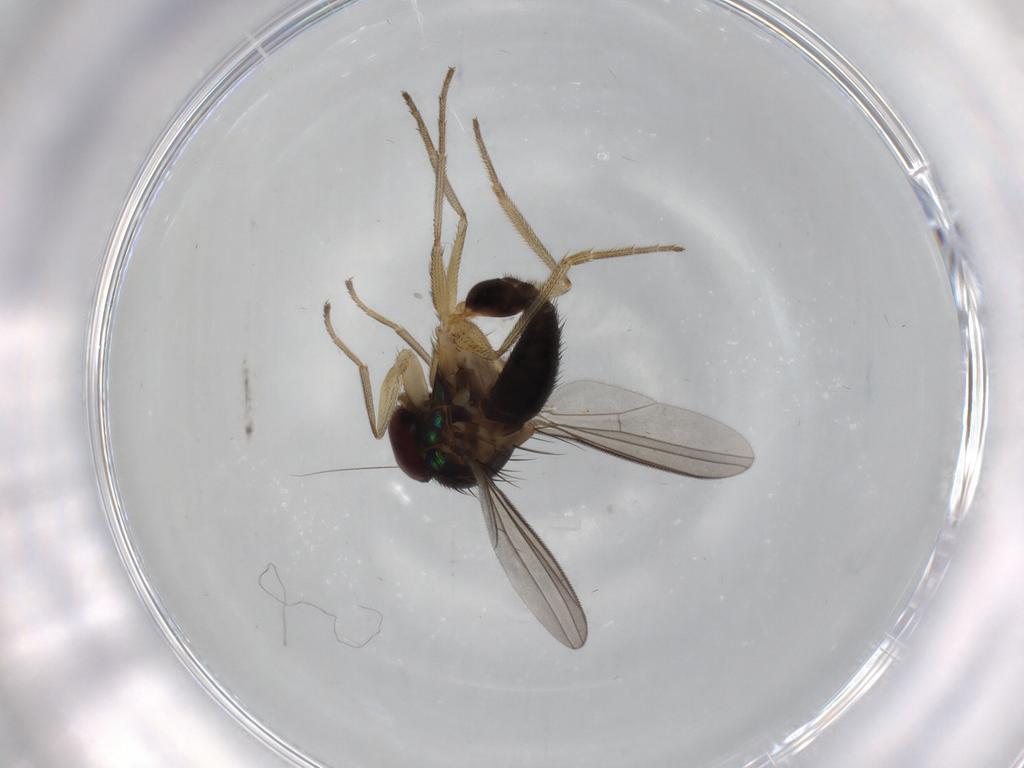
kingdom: Animalia
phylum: Arthropoda
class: Insecta
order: Diptera
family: Dolichopodidae
